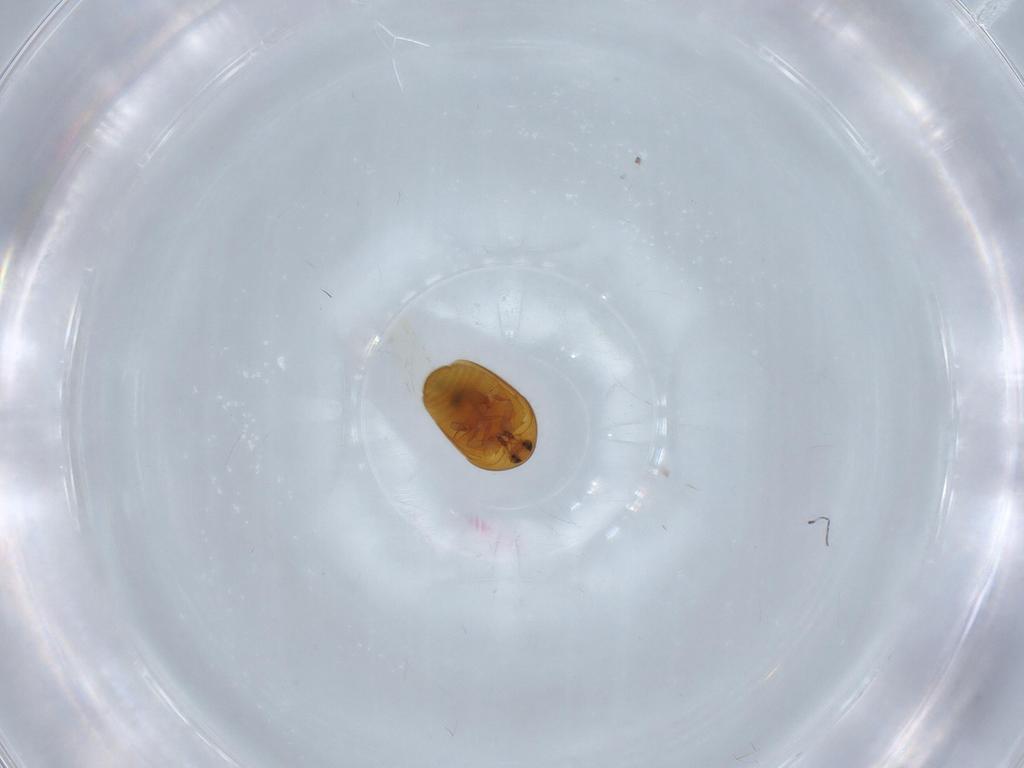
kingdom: Animalia
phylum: Arthropoda
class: Insecta
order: Coleoptera
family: Corylophidae
